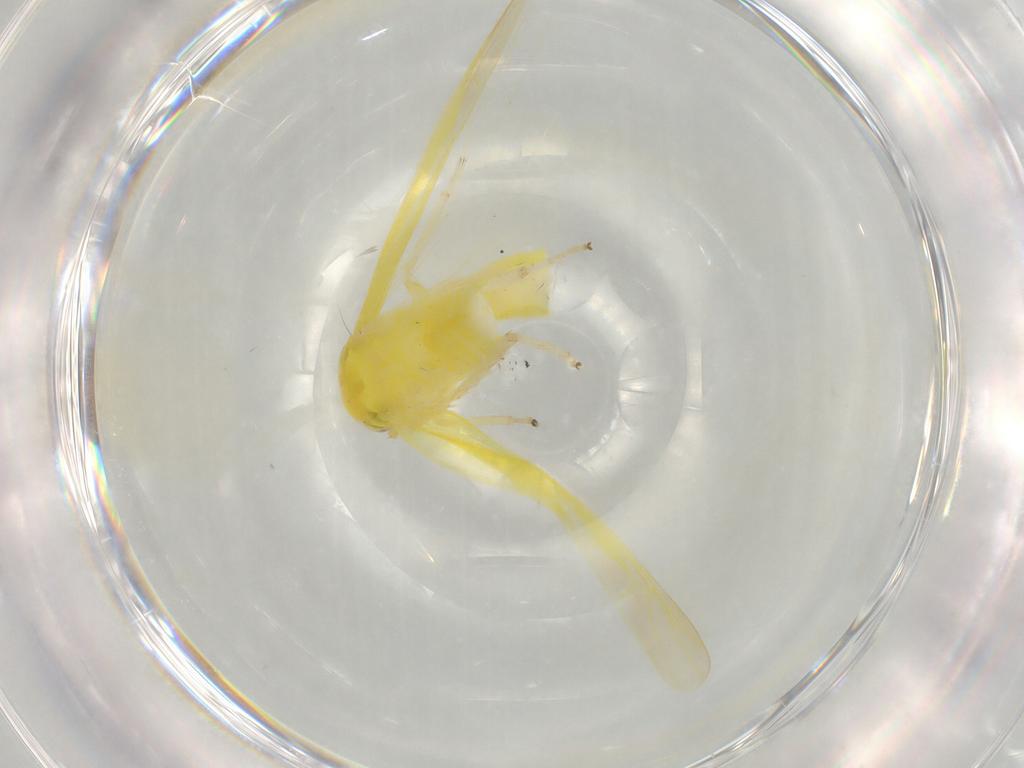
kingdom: Animalia
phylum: Arthropoda
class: Insecta
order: Hemiptera
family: Cicadellidae
